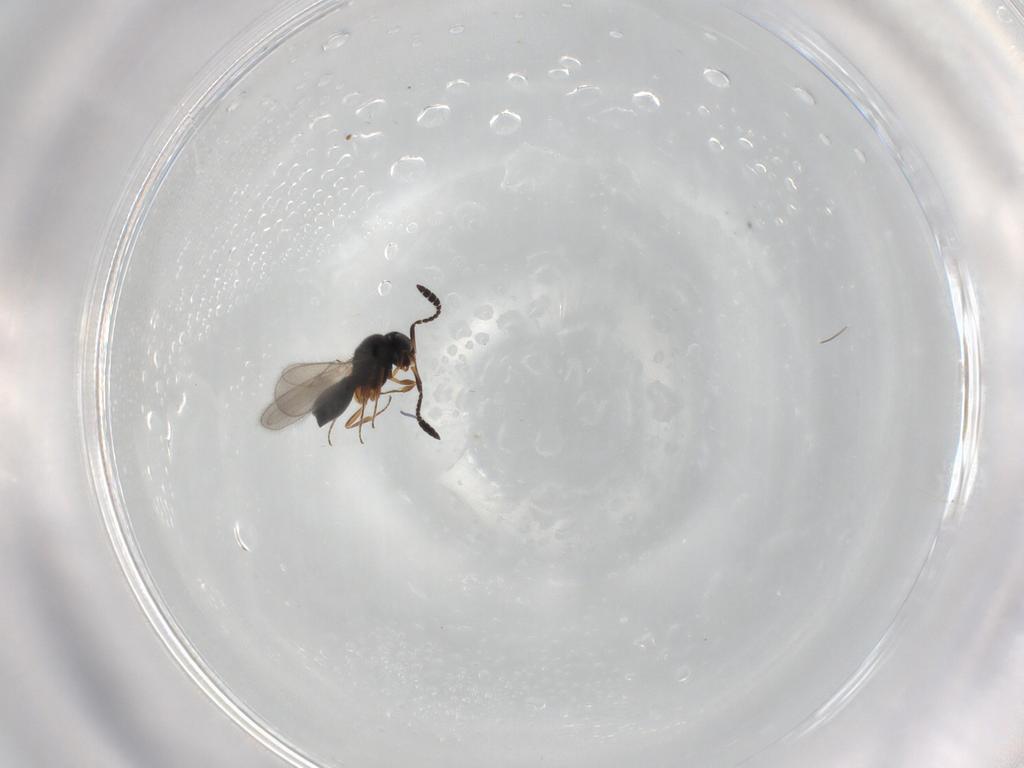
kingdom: Animalia
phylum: Arthropoda
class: Insecta
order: Hymenoptera
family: Scelionidae
